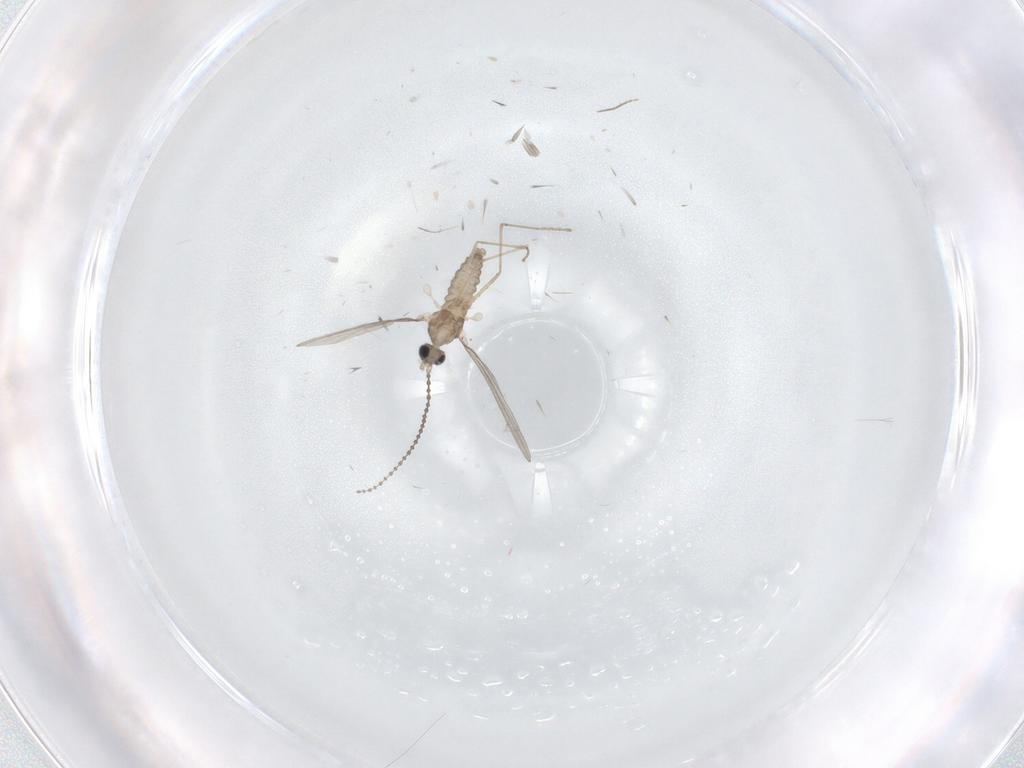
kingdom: Animalia
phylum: Arthropoda
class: Insecta
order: Diptera
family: Cecidomyiidae
